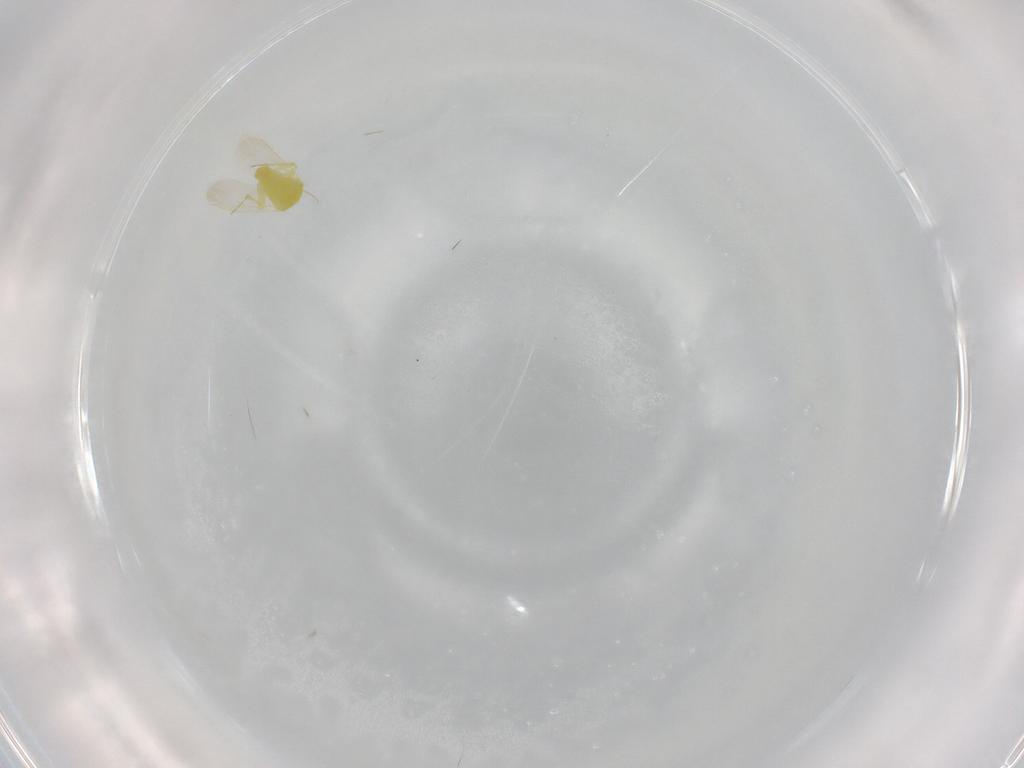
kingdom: Animalia
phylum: Arthropoda
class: Insecta
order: Hemiptera
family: Aleyrodidae
